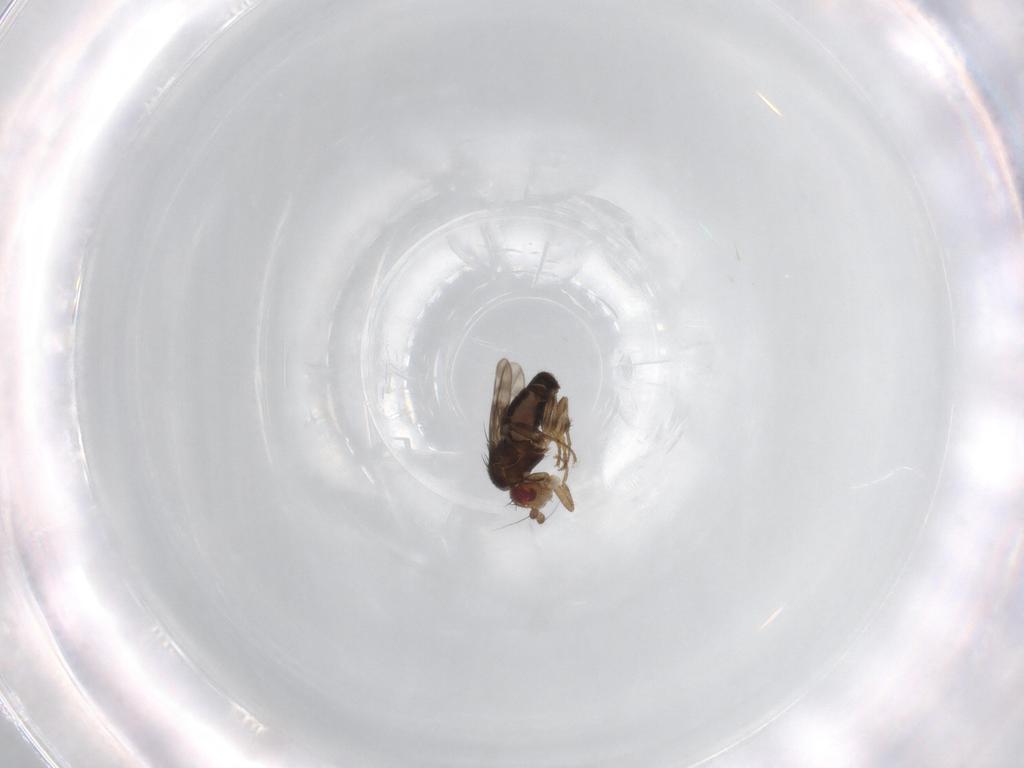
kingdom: Animalia
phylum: Arthropoda
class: Insecta
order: Diptera
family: Sphaeroceridae
